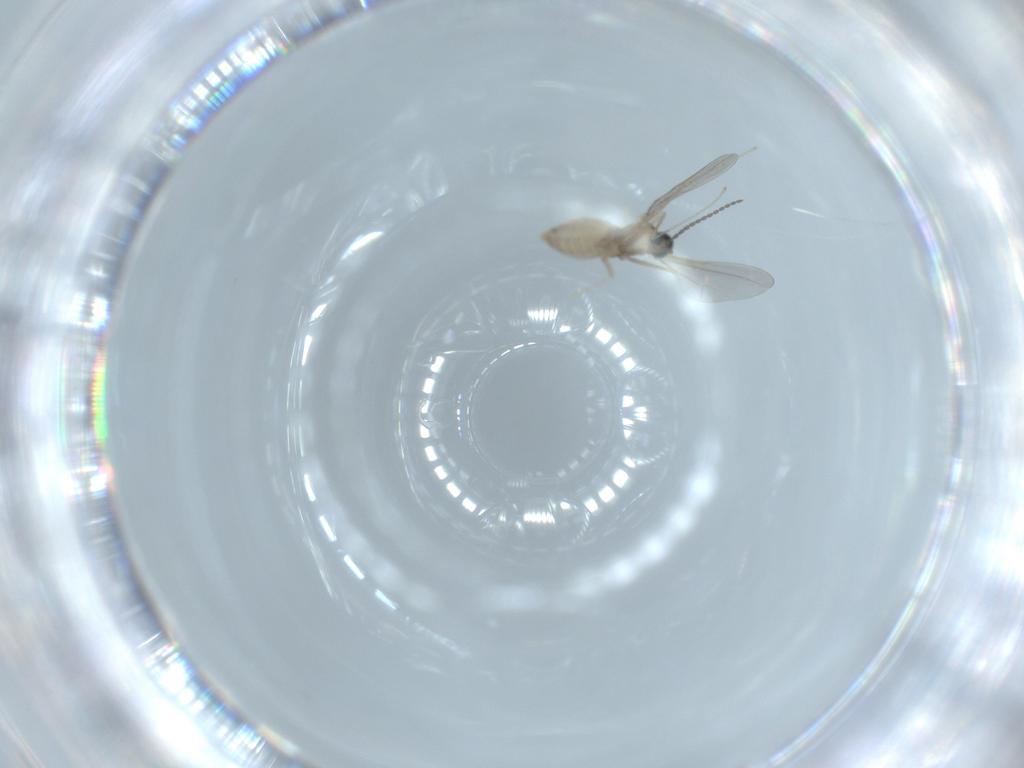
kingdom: Animalia
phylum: Arthropoda
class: Insecta
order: Diptera
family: Cecidomyiidae
